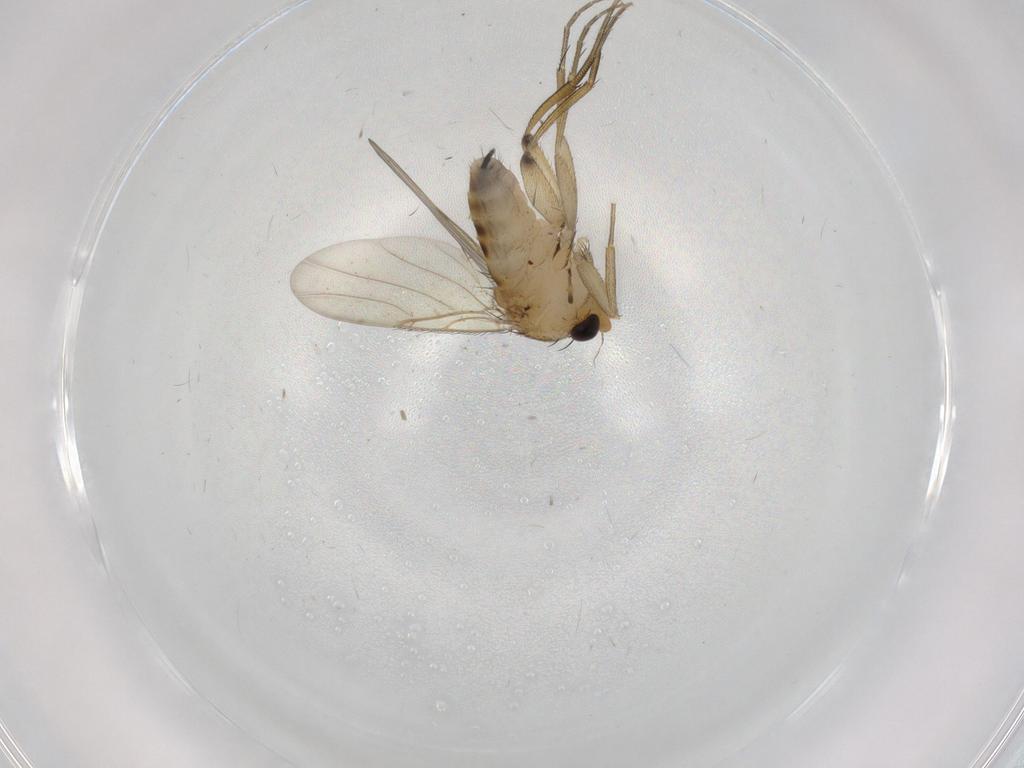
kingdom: Animalia
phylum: Arthropoda
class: Insecta
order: Diptera
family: Phoridae
